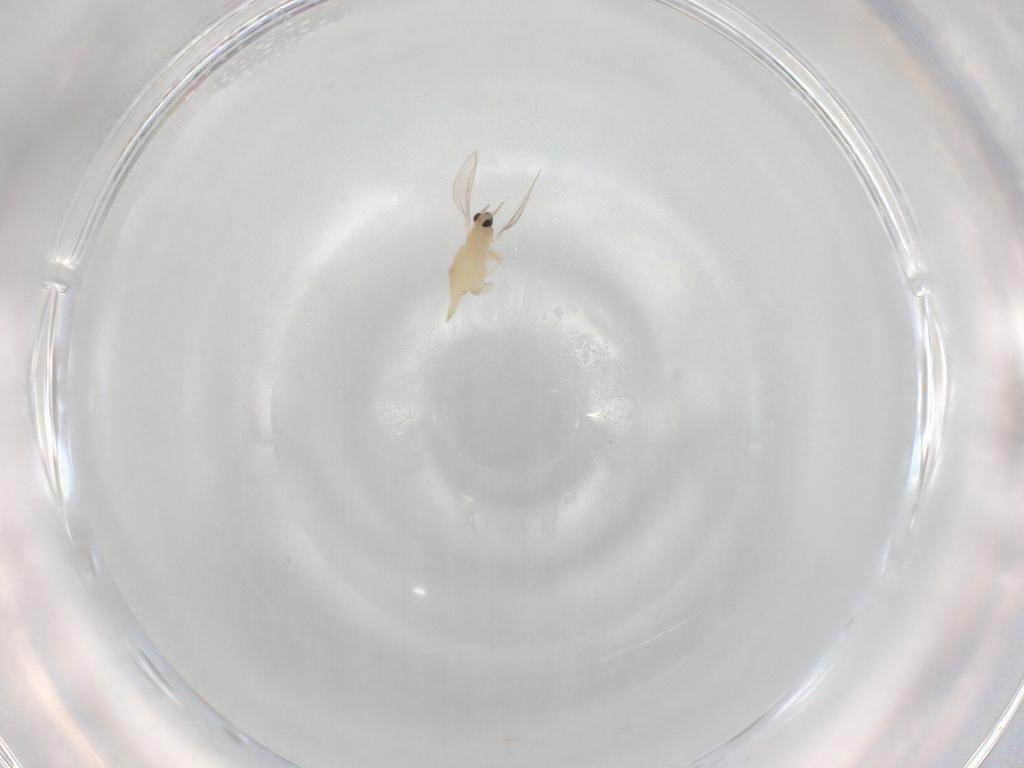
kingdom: Animalia
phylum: Arthropoda
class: Insecta
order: Diptera
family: Cecidomyiidae
